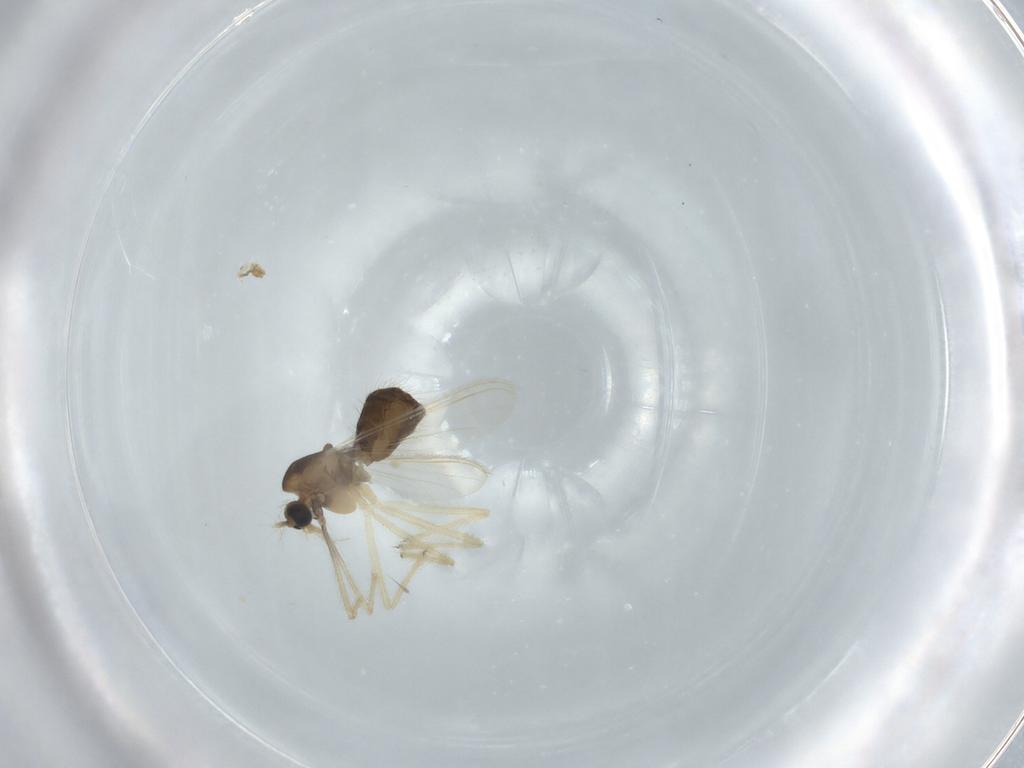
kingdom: Animalia
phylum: Arthropoda
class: Insecta
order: Diptera
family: Chironomidae
